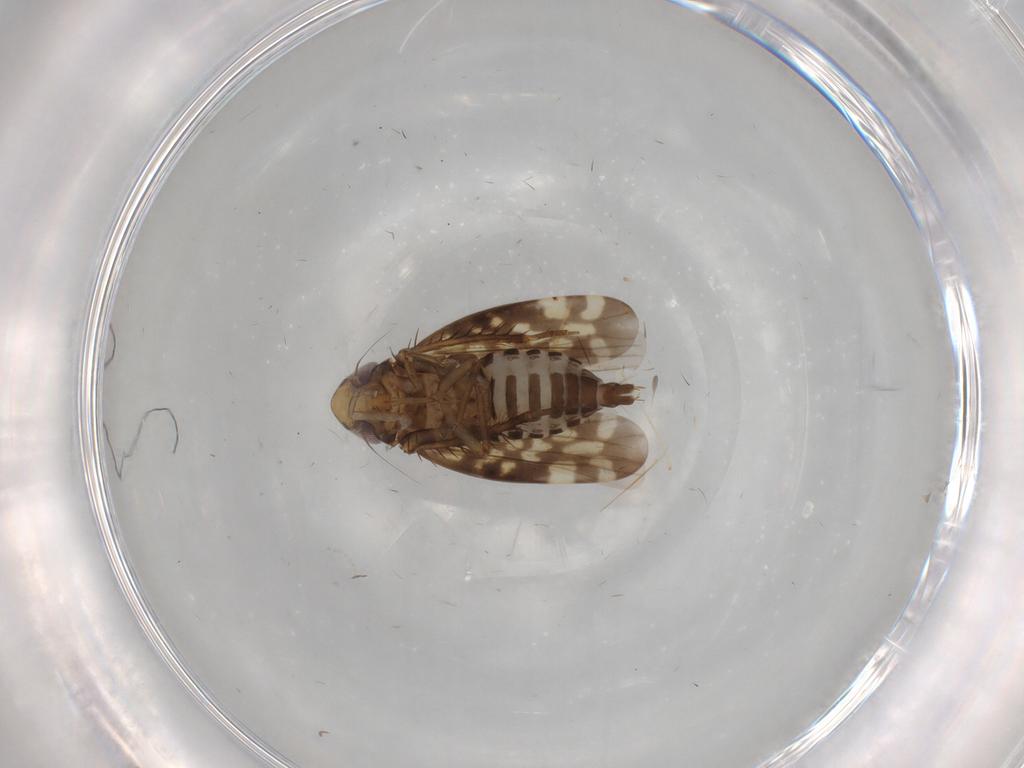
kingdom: Animalia
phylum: Arthropoda
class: Insecta
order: Hemiptera
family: Cicadellidae
